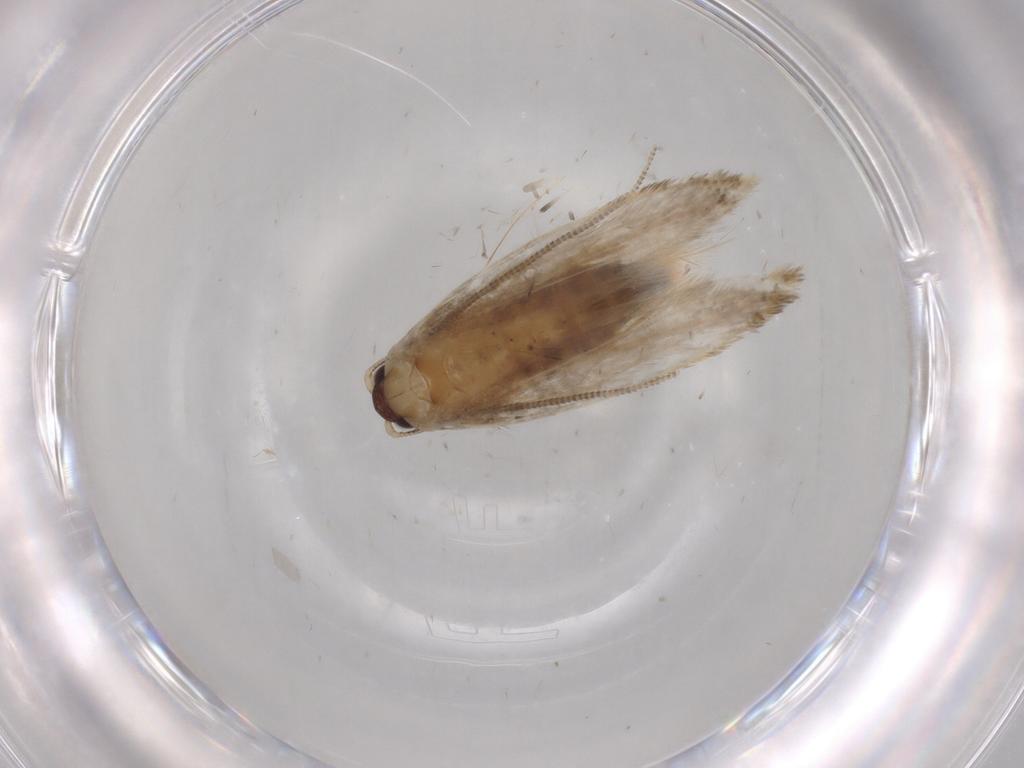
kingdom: Animalia
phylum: Arthropoda
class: Insecta
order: Lepidoptera
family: Tineidae
